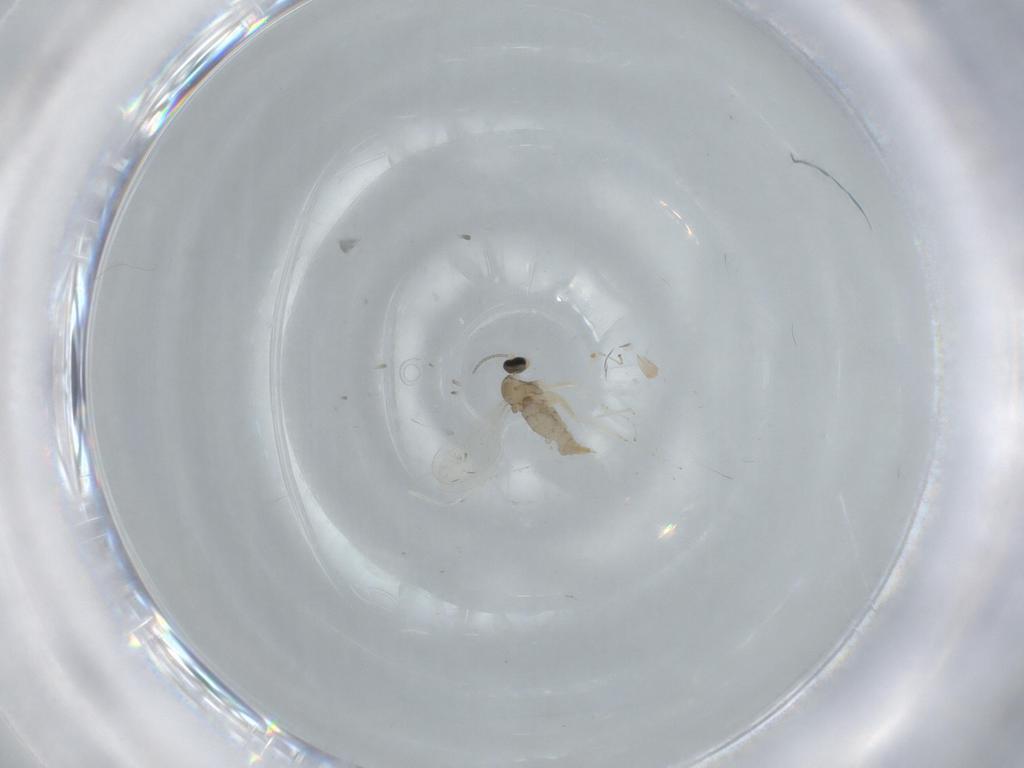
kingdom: Animalia
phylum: Arthropoda
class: Insecta
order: Diptera
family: Cecidomyiidae
